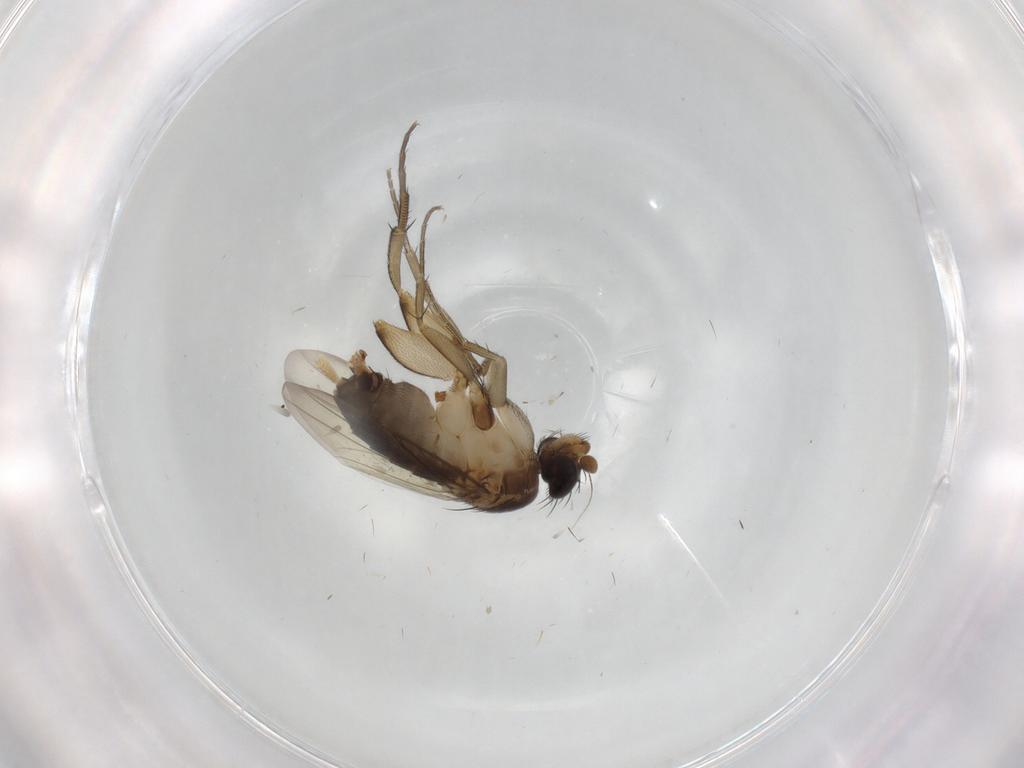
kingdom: Animalia
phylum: Arthropoda
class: Insecta
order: Diptera
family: Phoridae
